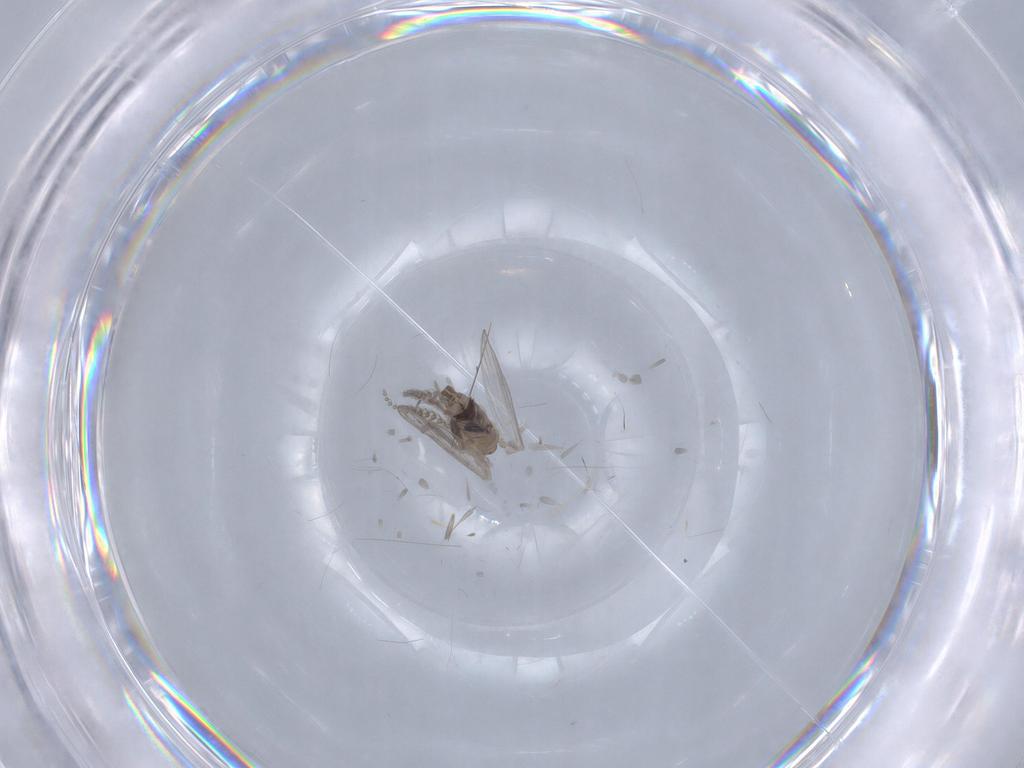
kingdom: Animalia
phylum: Arthropoda
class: Insecta
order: Diptera
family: Psychodidae
